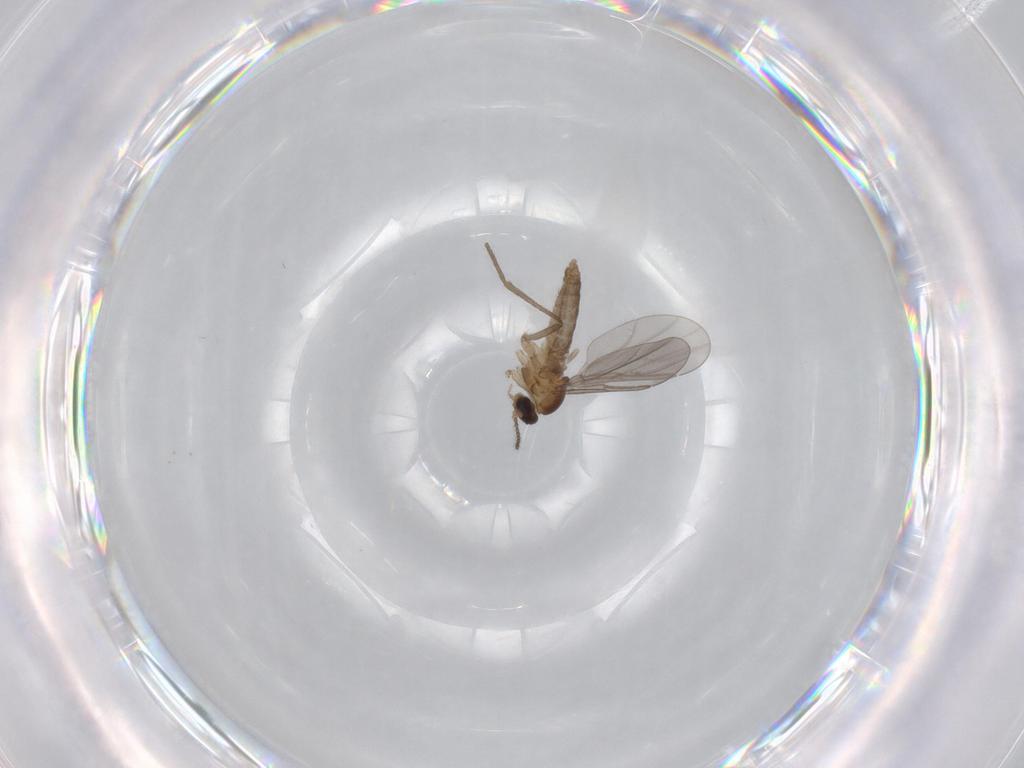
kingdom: Animalia
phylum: Arthropoda
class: Insecta
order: Diptera
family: Cecidomyiidae
